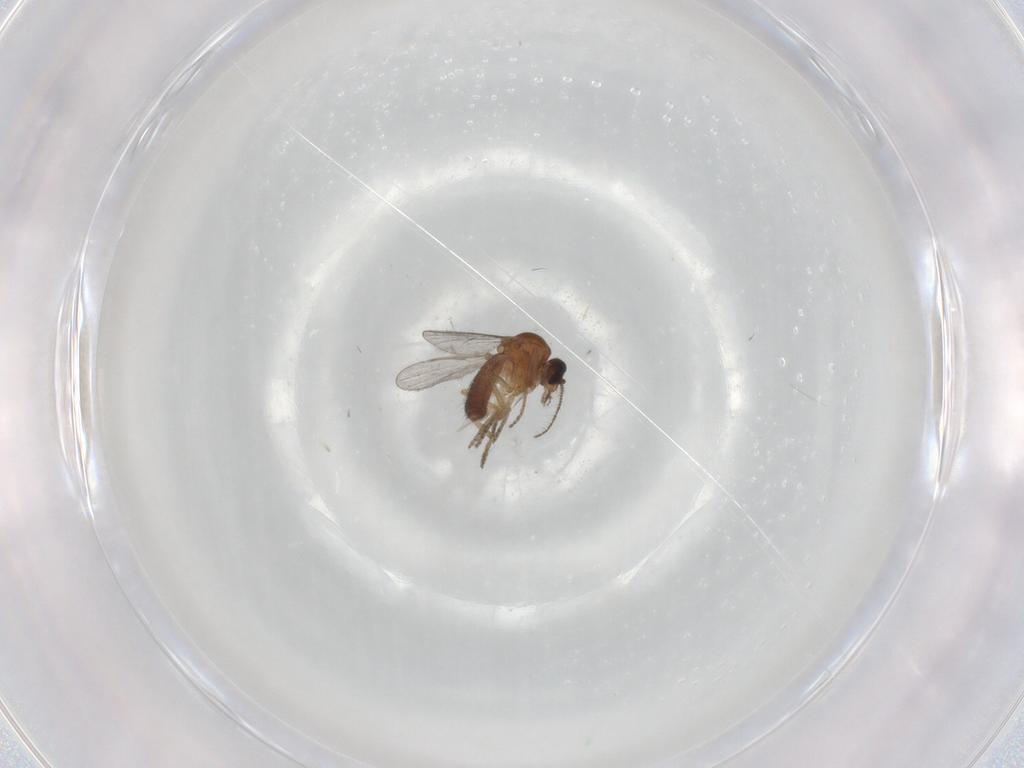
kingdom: Animalia
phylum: Arthropoda
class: Insecta
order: Diptera
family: Ceratopogonidae
